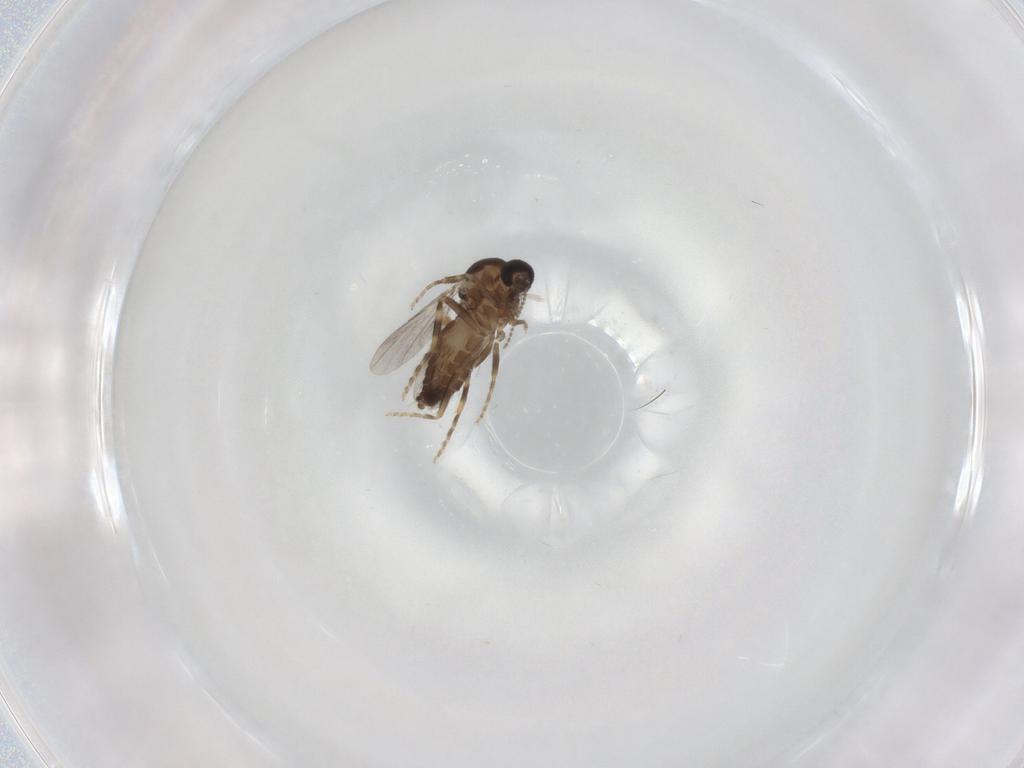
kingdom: Animalia
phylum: Arthropoda
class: Insecta
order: Diptera
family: Ceratopogonidae
